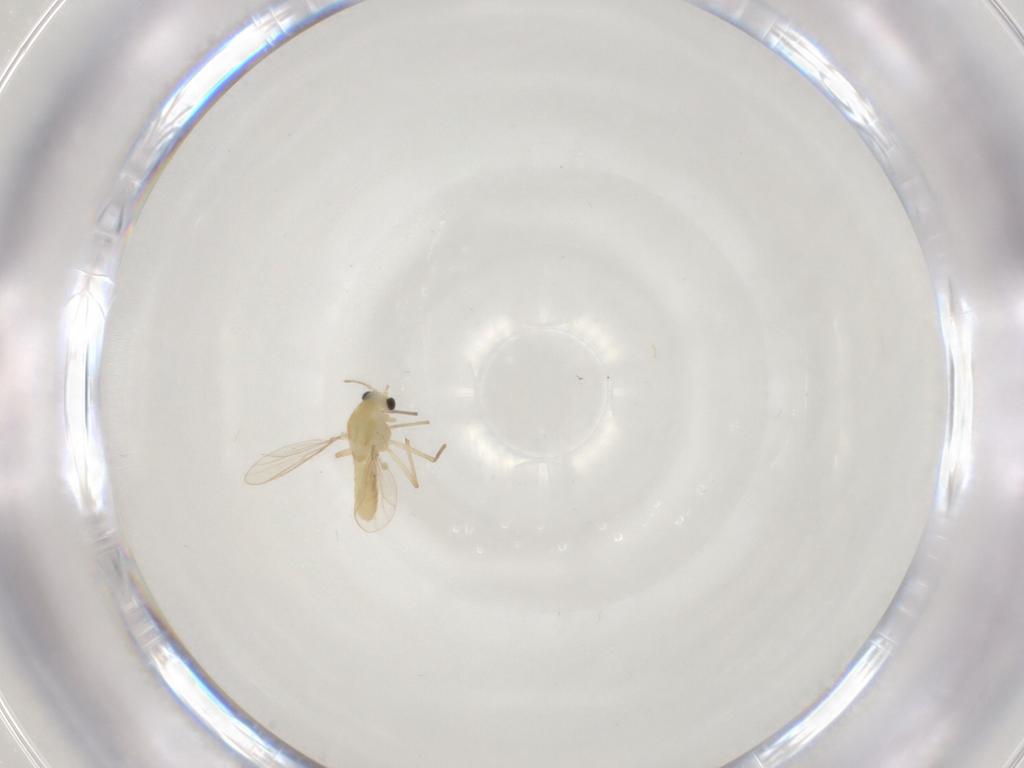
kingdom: Animalia
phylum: Arthropoda
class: Insecta
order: Diptera
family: Chironomidae
